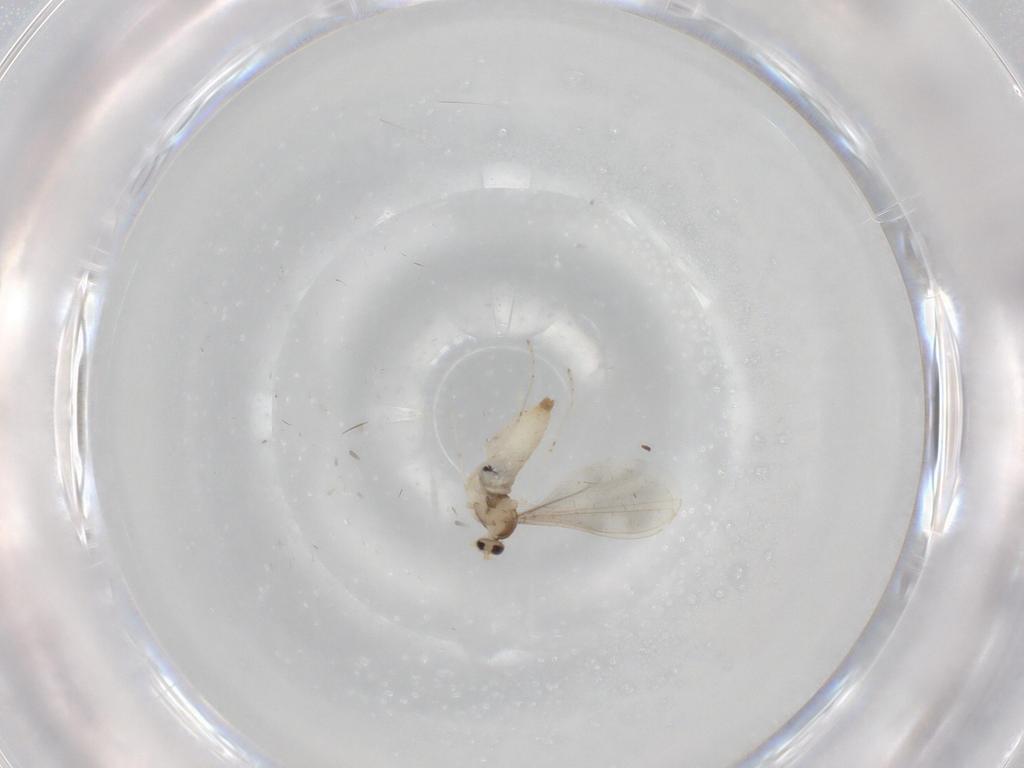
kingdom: Animalia
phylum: Arthropoda
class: Insecta
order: Diptera
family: Cecidomyiidae
